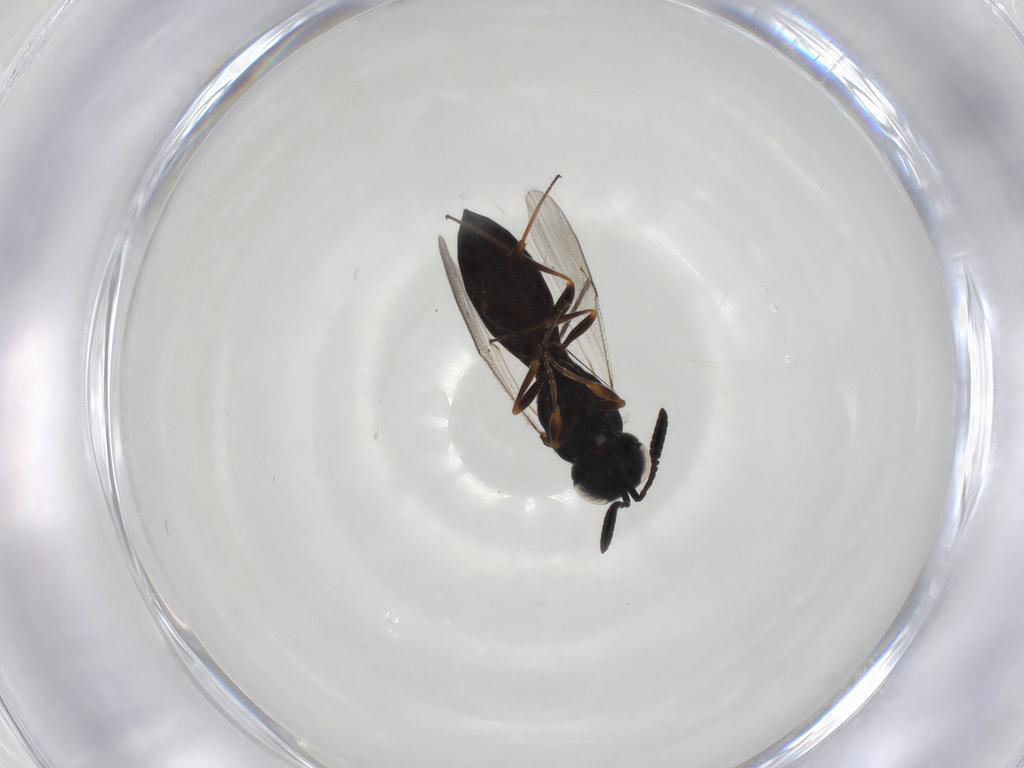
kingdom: Animalia
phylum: Arthropoda
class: Insecta
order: Hymenoptera
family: Scelionidae
